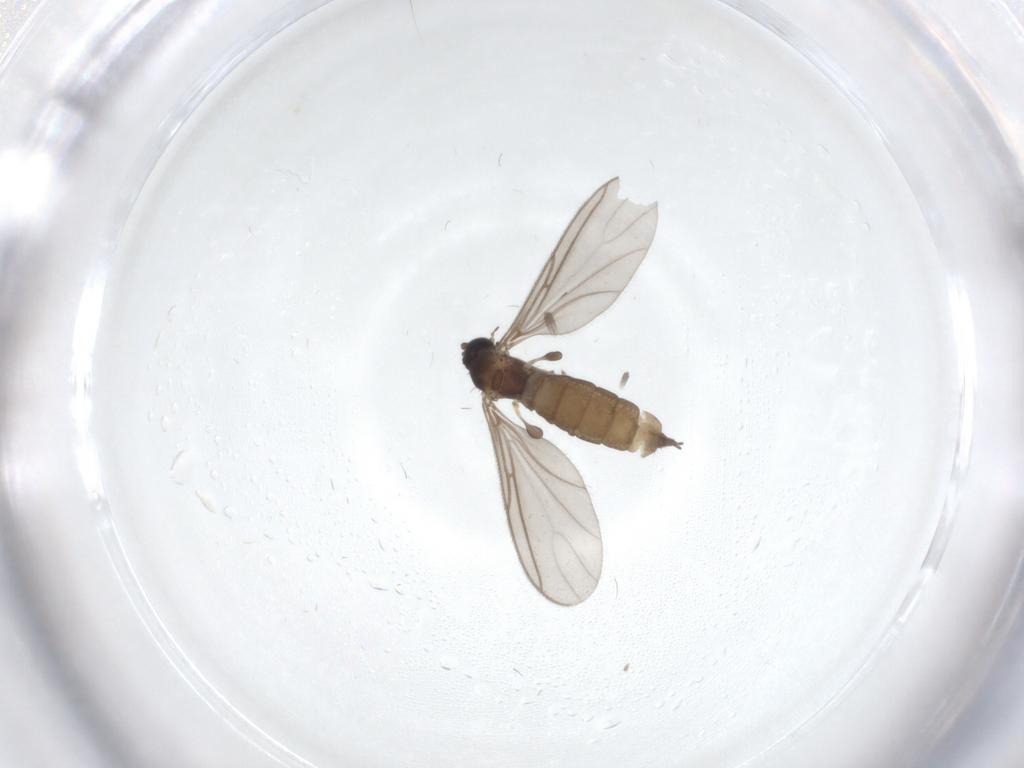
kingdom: Animalia
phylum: Arthropoda
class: Insecta
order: Diptera
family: Sciaridae
